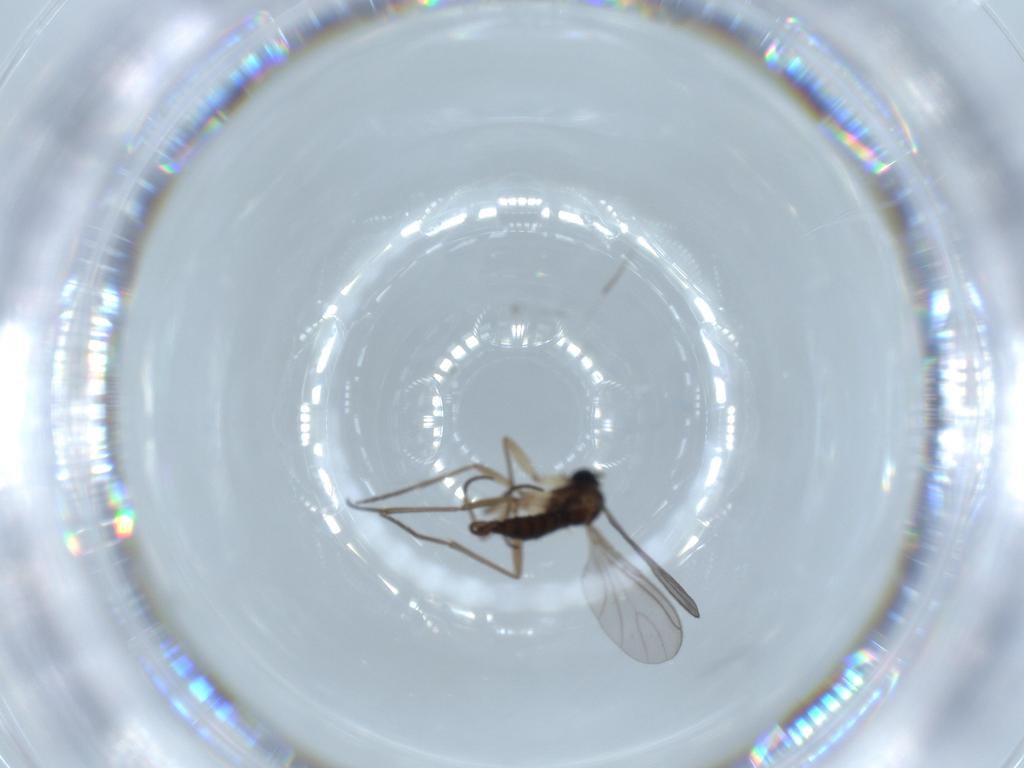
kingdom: Animalia
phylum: Arthropoda
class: Insecta
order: Diptera
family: Sciaridae
